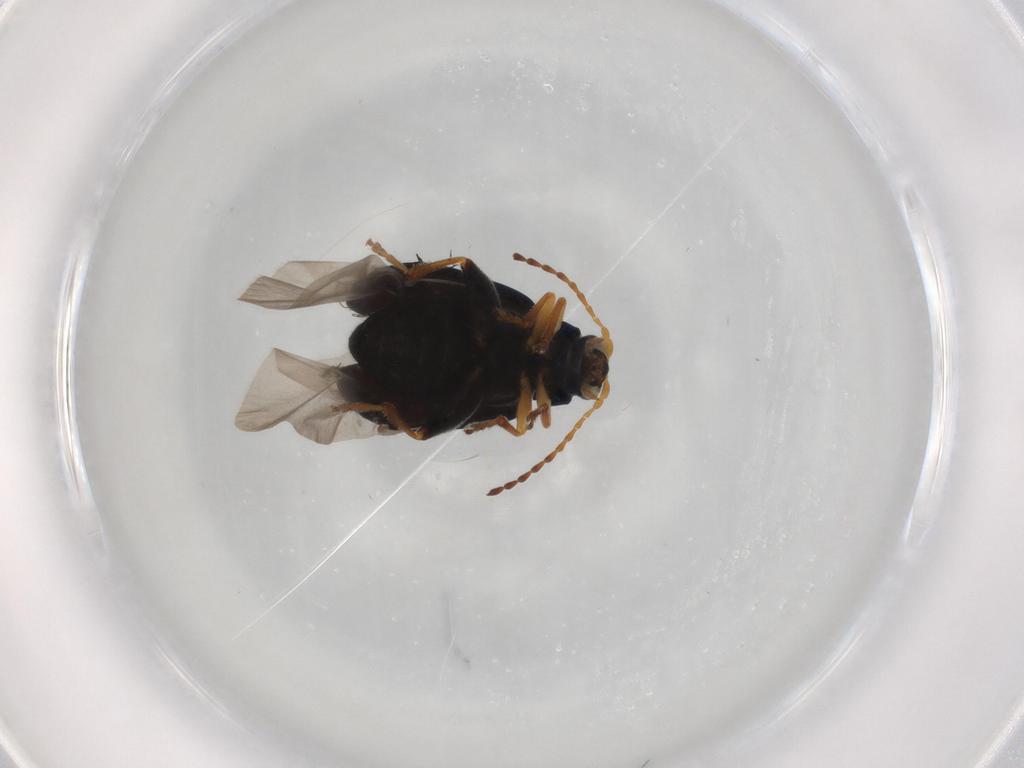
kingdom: Animalia
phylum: Arthropoda
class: Insecta
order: Coleoptera
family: Chrysomelidae
